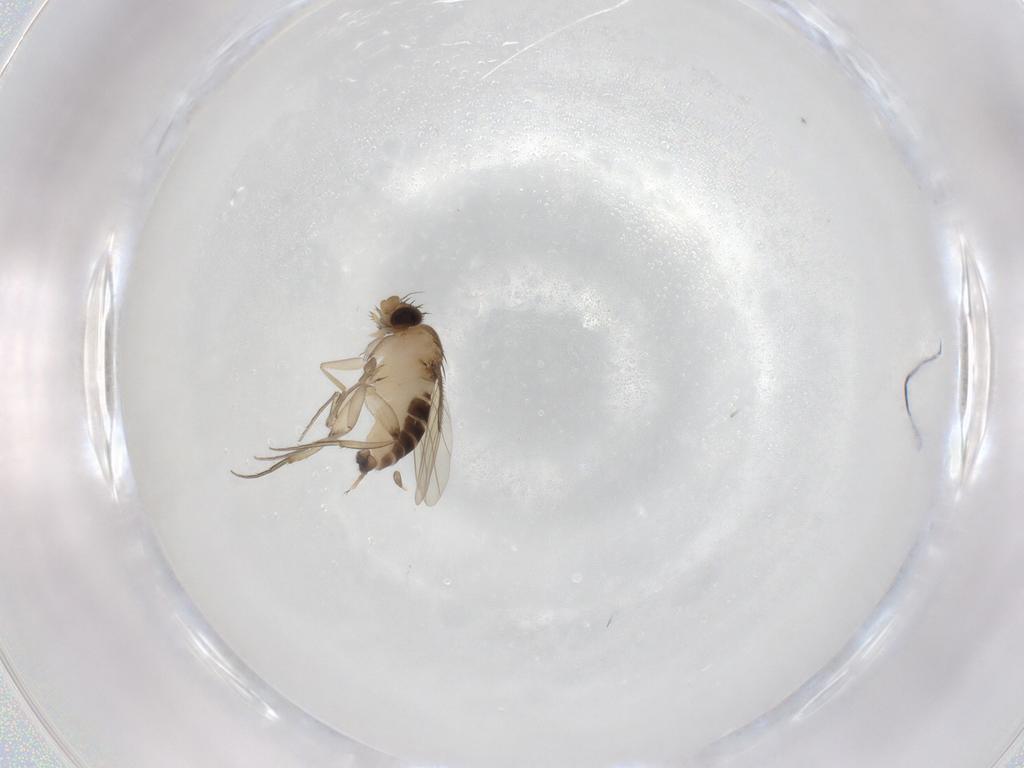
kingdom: Animalia
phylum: Arthropoda
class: Insecta
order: Diptera
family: Phoridae
